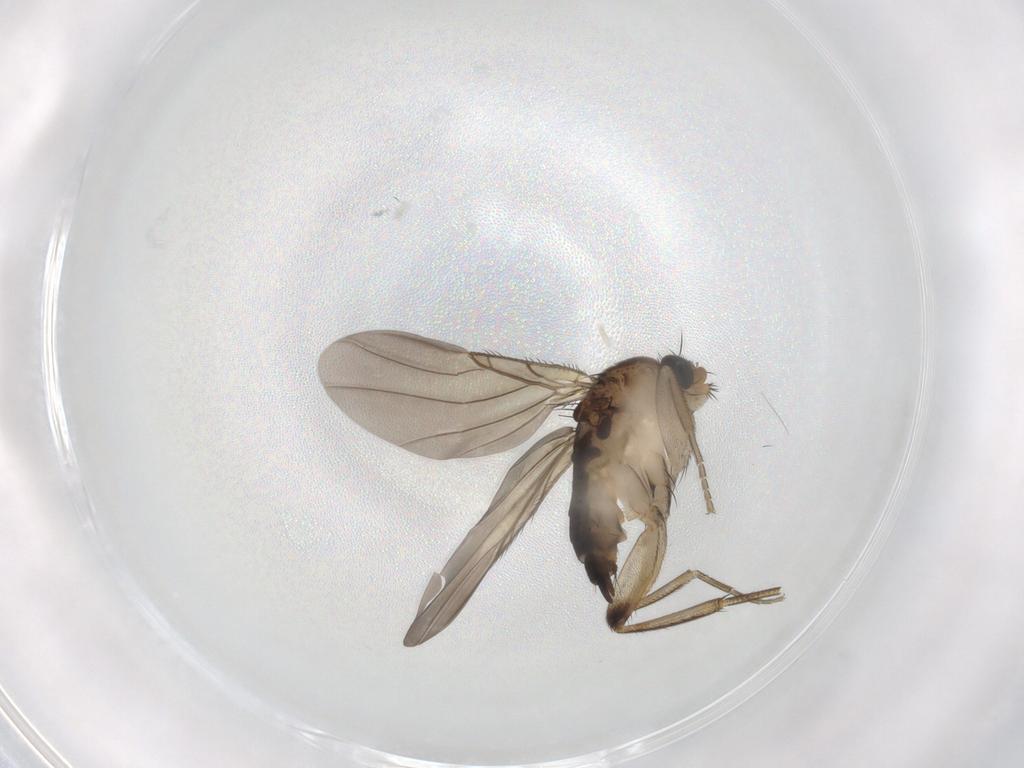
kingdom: Animalia
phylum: Arthropoda
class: Insecta
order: Diptera
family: Phoridae
